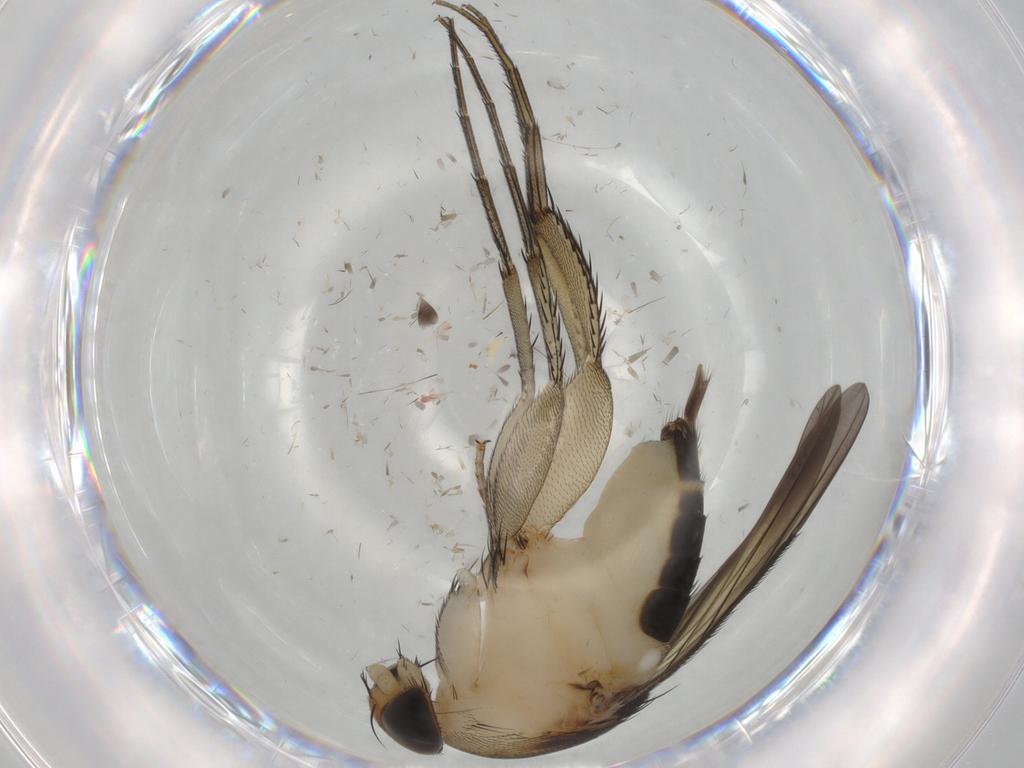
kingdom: Animalia
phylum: Arthropoda
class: Insecta
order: Diptera
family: Phoridae
